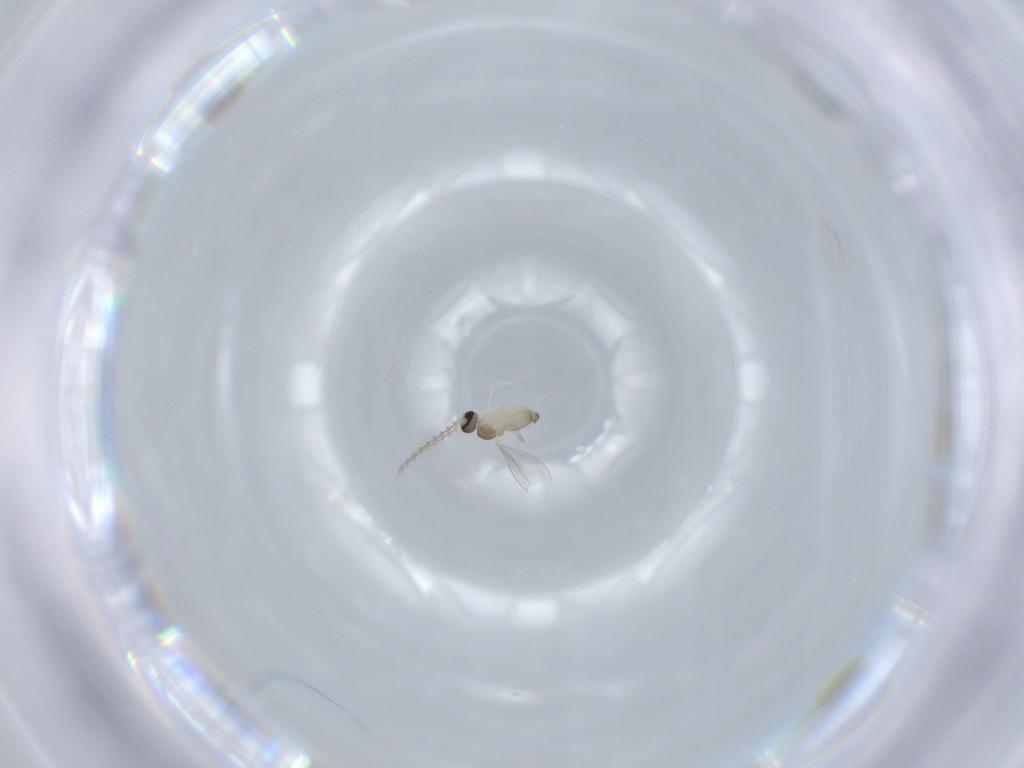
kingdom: Animalia
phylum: Arthropoda
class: Insecta
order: Diptera
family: Cecidomyiidae
